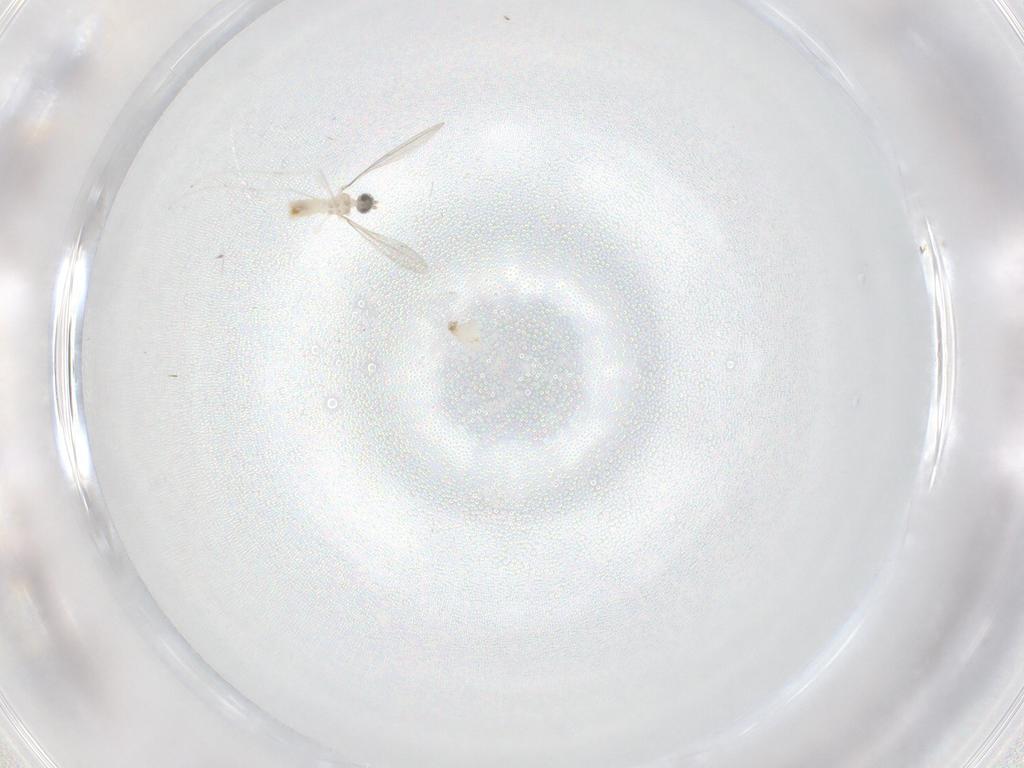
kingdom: Animalia
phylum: Arthropoda
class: Insecta
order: Diptera
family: Cecidomyiidae
